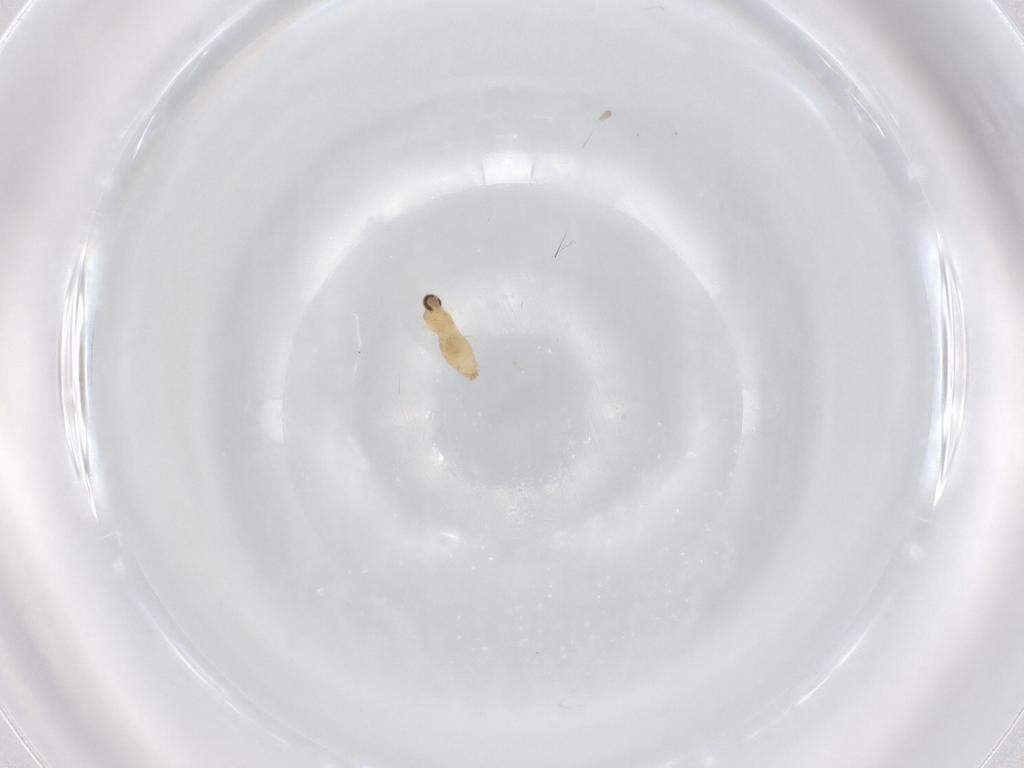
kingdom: Animalia
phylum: Arthropoda
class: Insecta
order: Diptera
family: Cecidomyiidae
